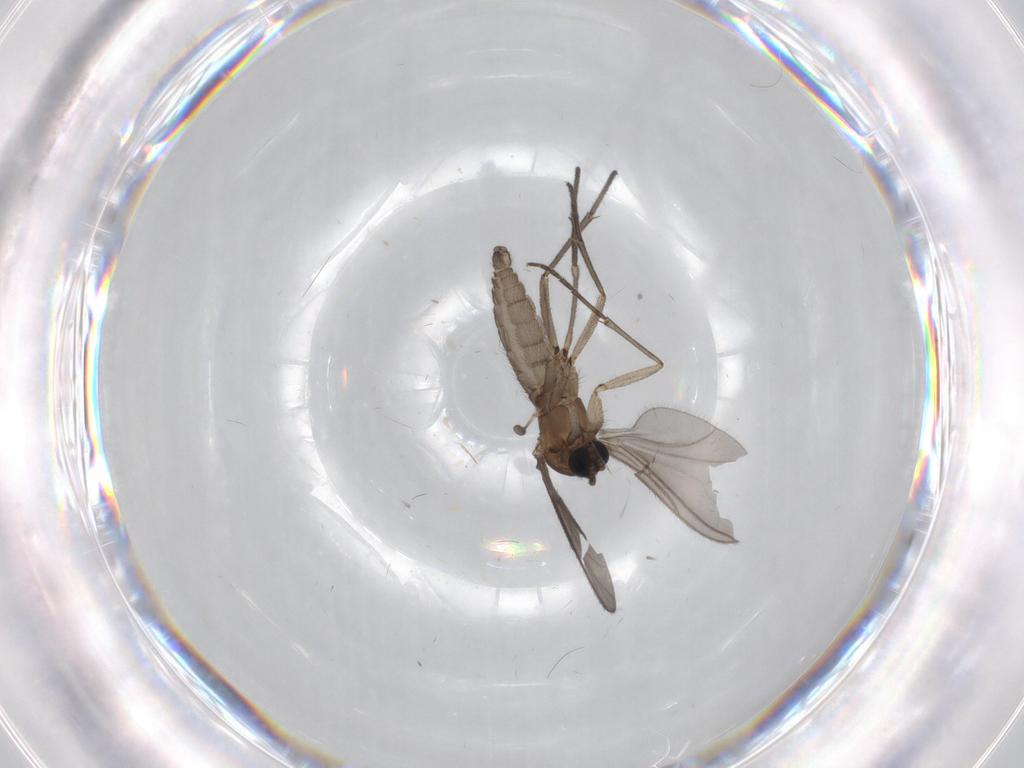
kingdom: Animalia
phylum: Arthropoda
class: Insecta
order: Diptera
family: Sciaridae
